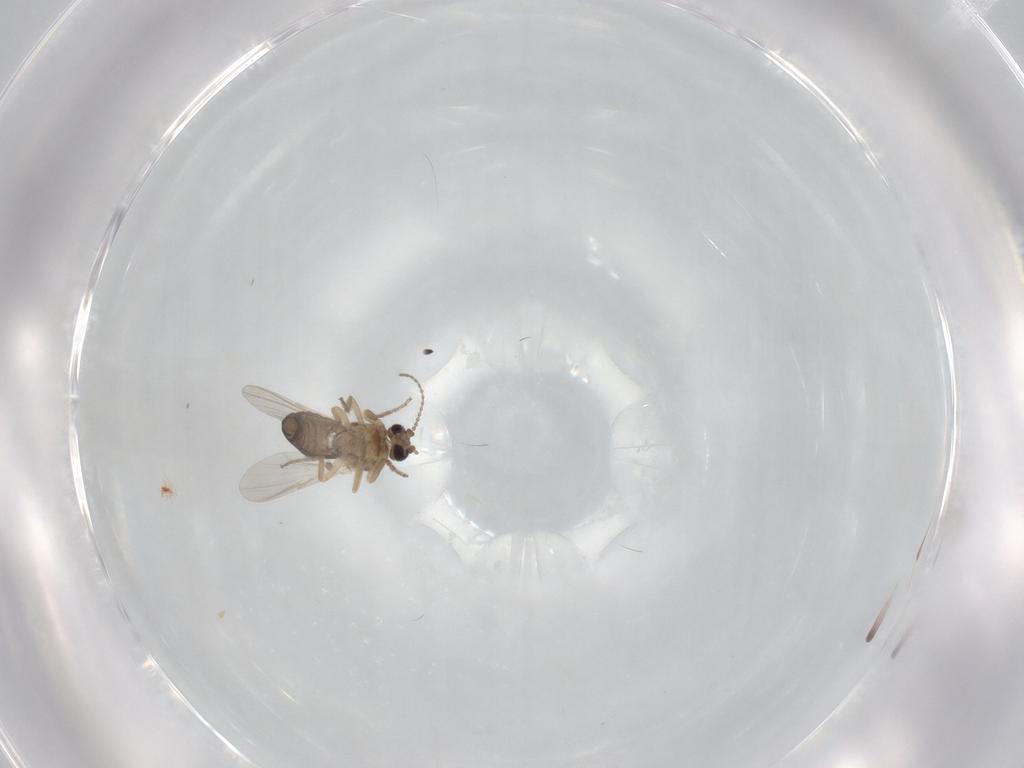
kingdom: Animalia
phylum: Arthropoda
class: Insecta
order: Diptera
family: Ceratopogonidae
